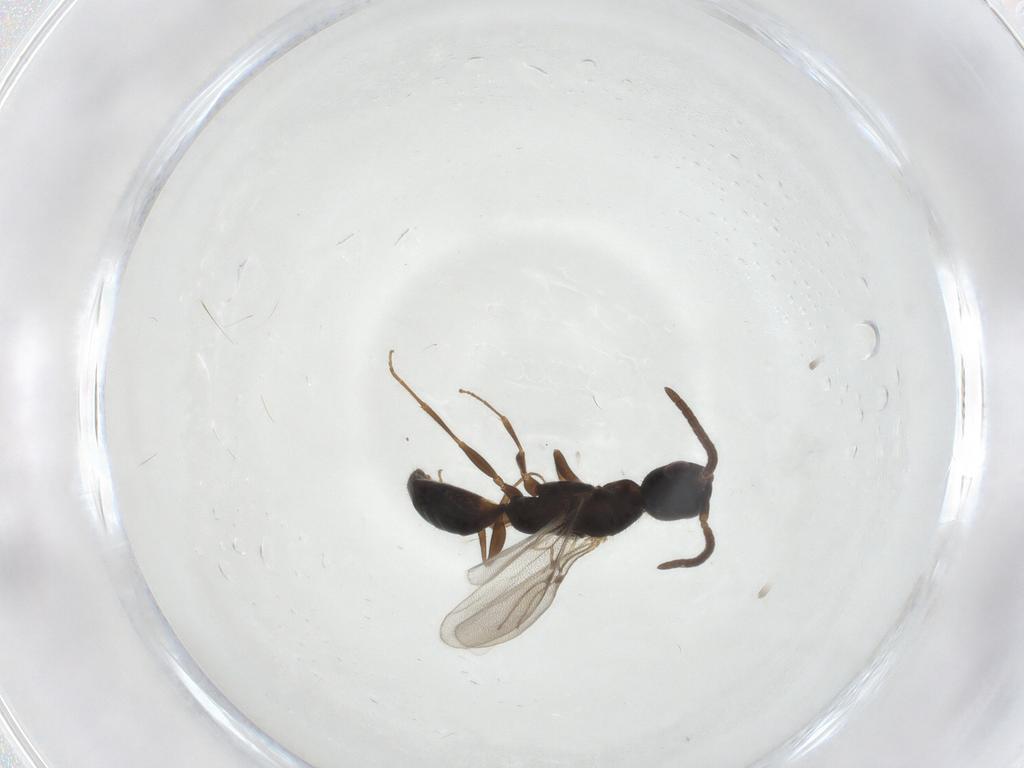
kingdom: Animalia
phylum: Arthropoda
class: Insecta
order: Hymenoptera
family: Bethylidae
